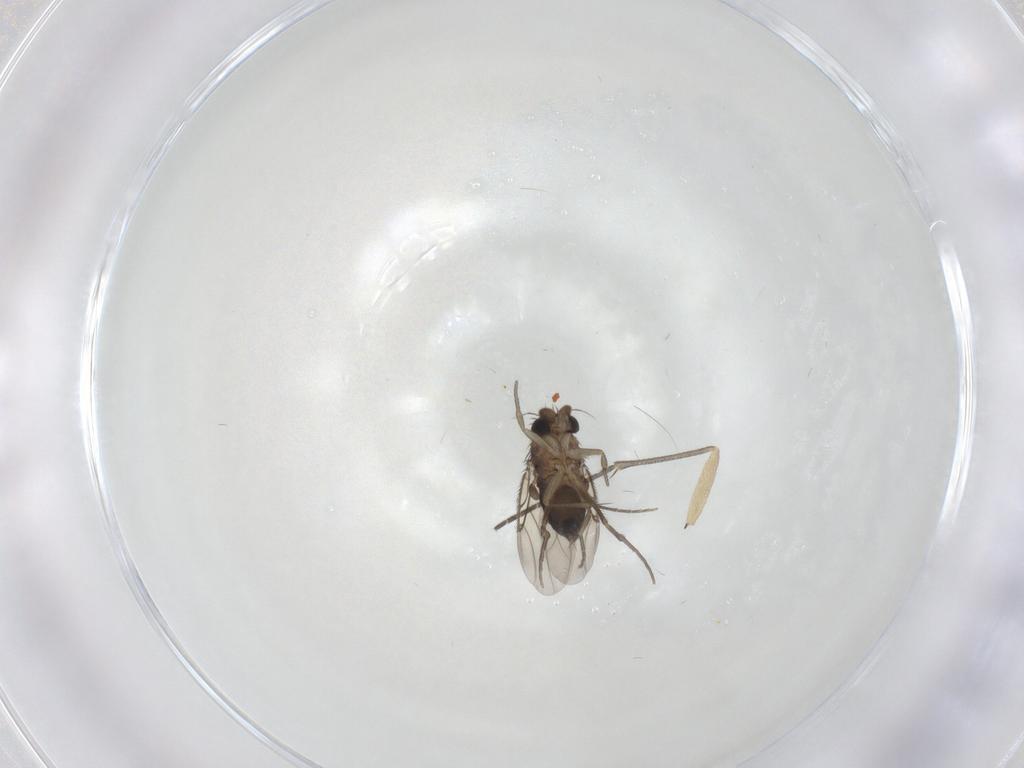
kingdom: Animalia
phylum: Arthropoda
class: Insecta
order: Diptera
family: Phoridae
